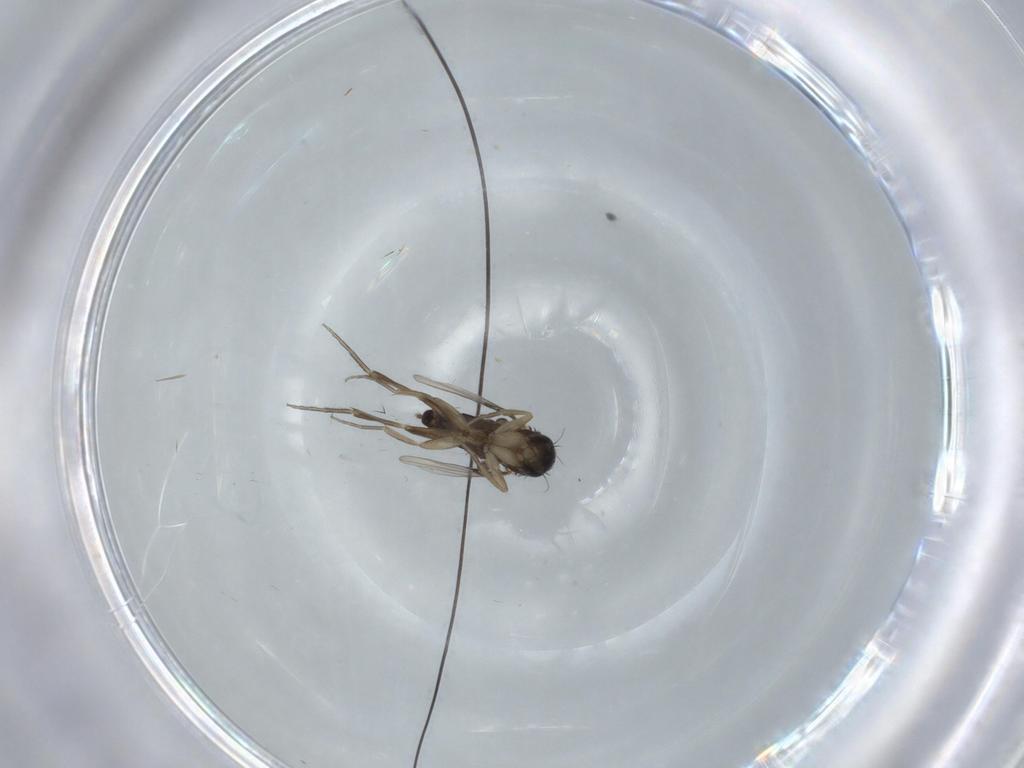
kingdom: Animalia
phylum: Arthropoda
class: Insecta
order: Diptera
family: Phoridae
